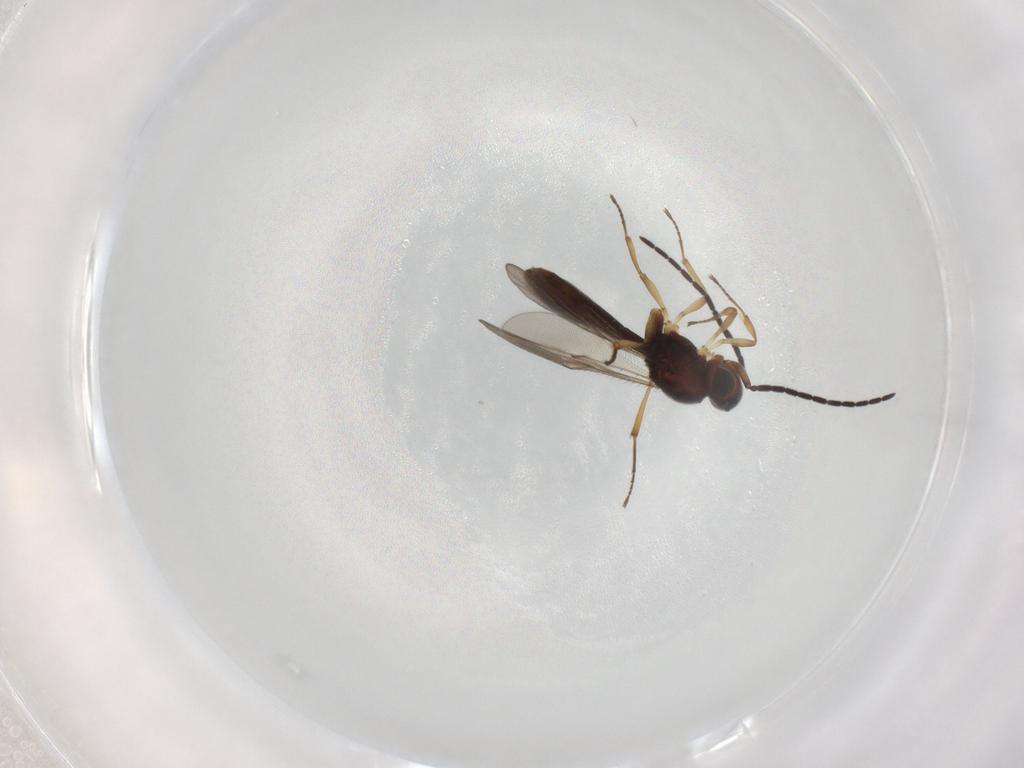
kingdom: Animalia
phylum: Arthropoda
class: Insecta
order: Hymenoptera
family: Scelionidae
